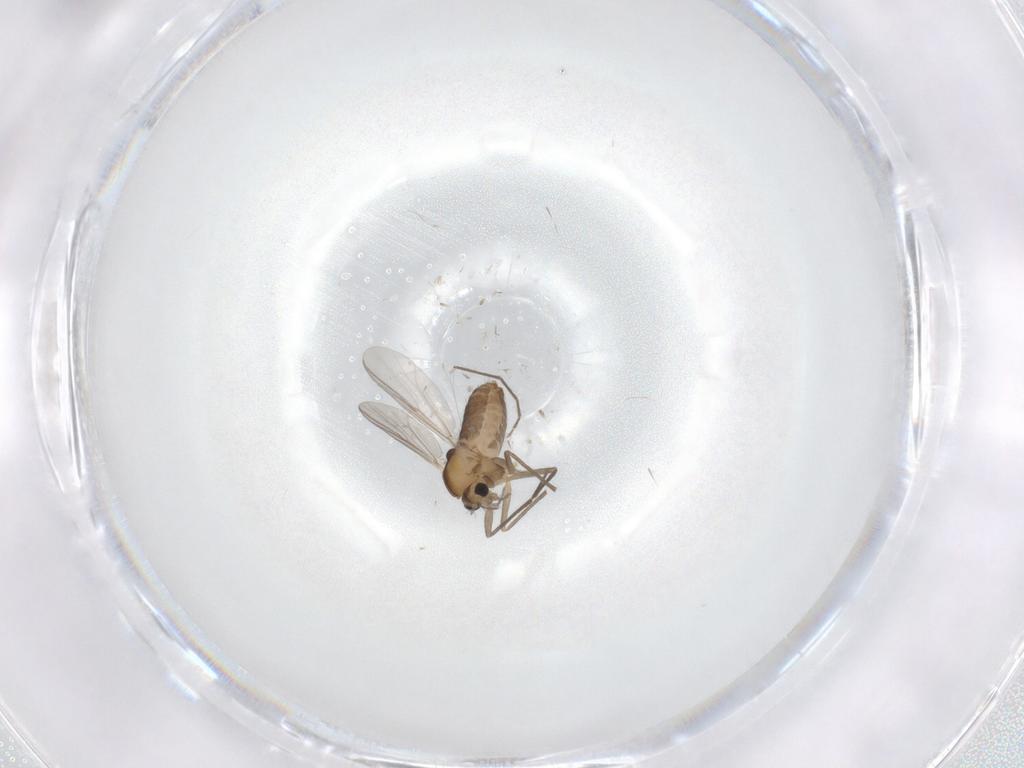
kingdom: Animalia
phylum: Arthropoda
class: Insecta
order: Diptera
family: Chironomidae
